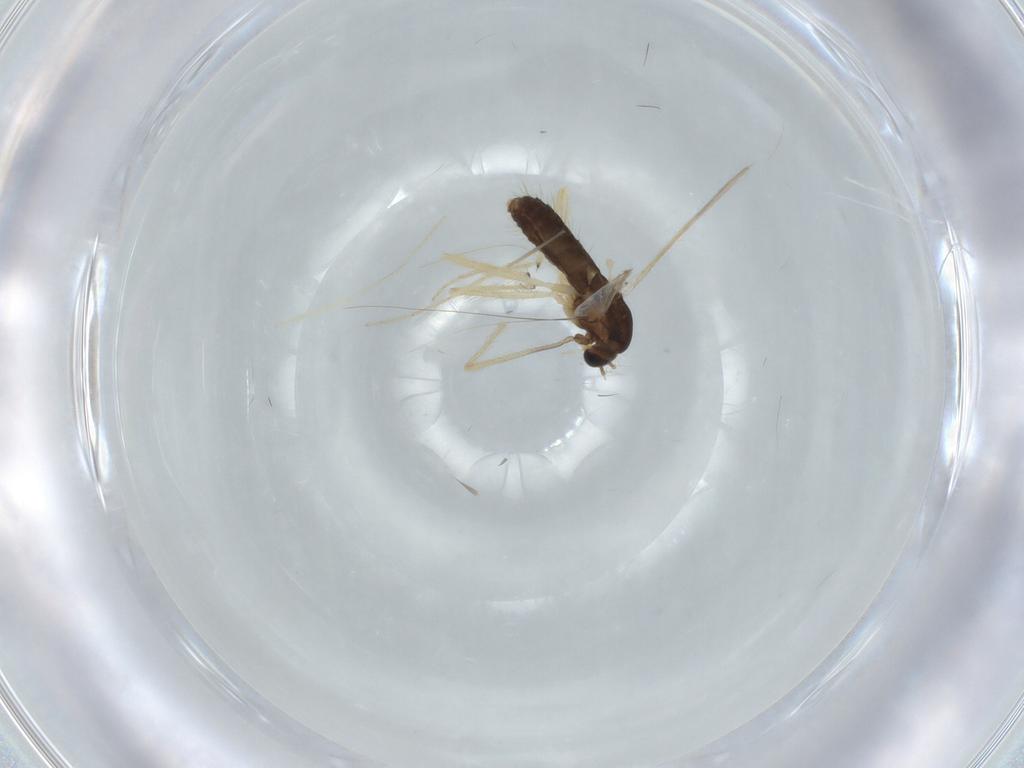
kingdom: Animalia
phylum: Arthropoda
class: Insecta
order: Diptera
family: Chironomidae
